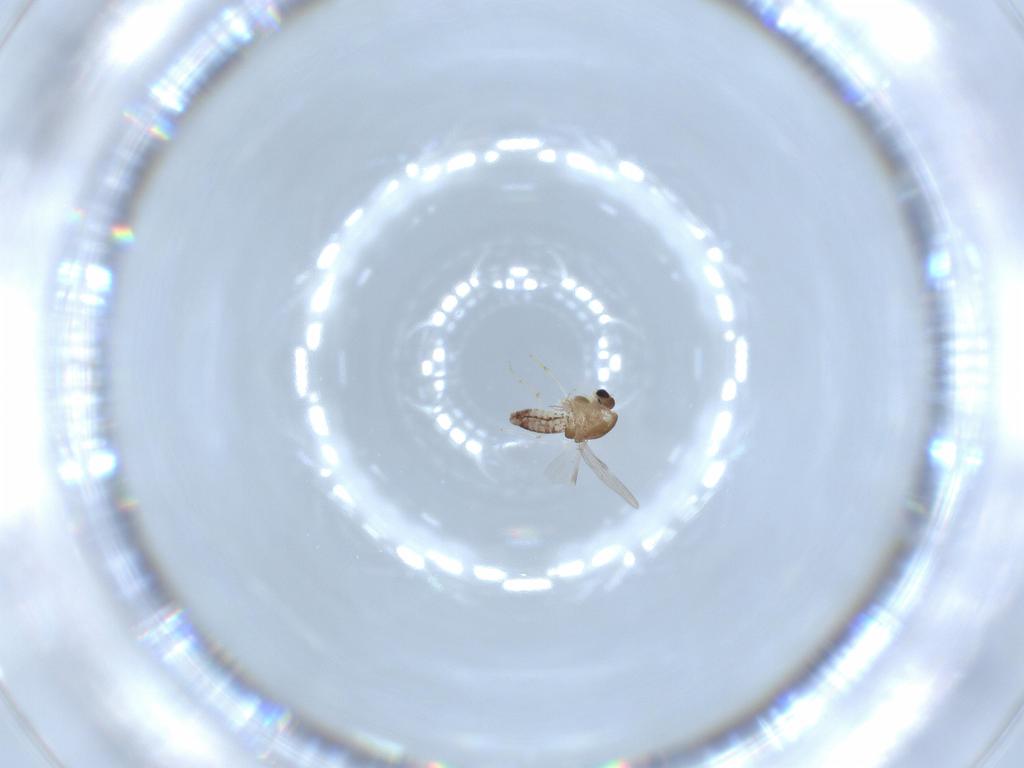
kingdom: Animalia
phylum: Arthropoda
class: Insecta
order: Diptera
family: Chironomidae
